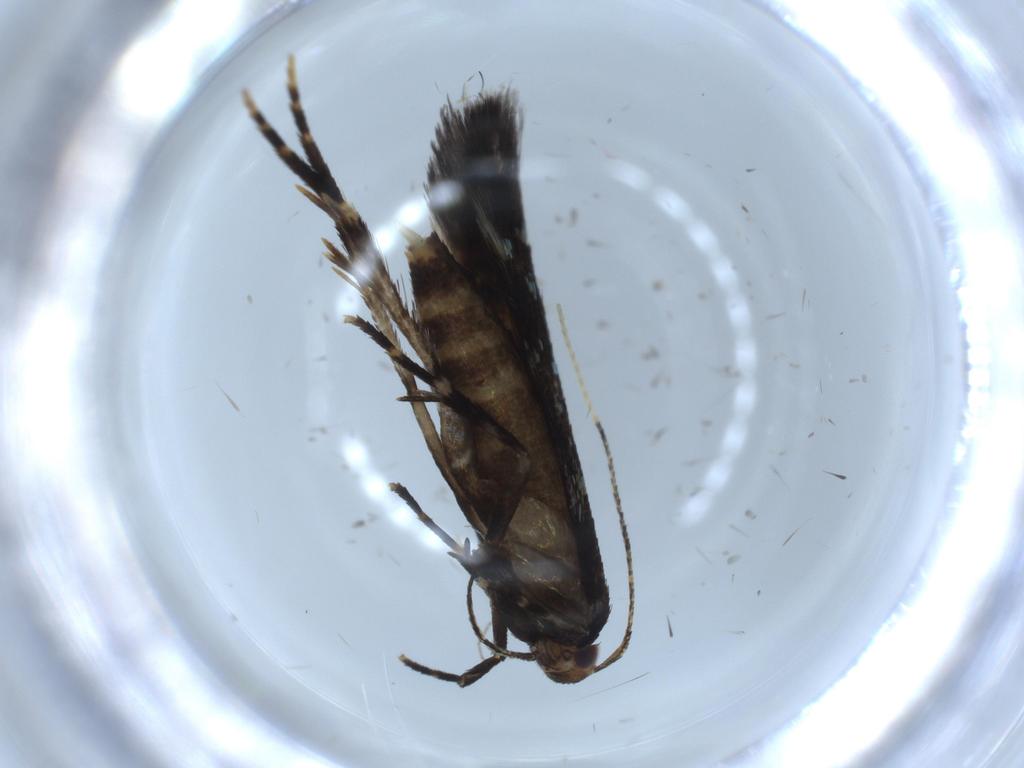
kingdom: Animalia
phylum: Arthropoda
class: Insecta
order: Lepidoptera
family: Cosmopterigidae
